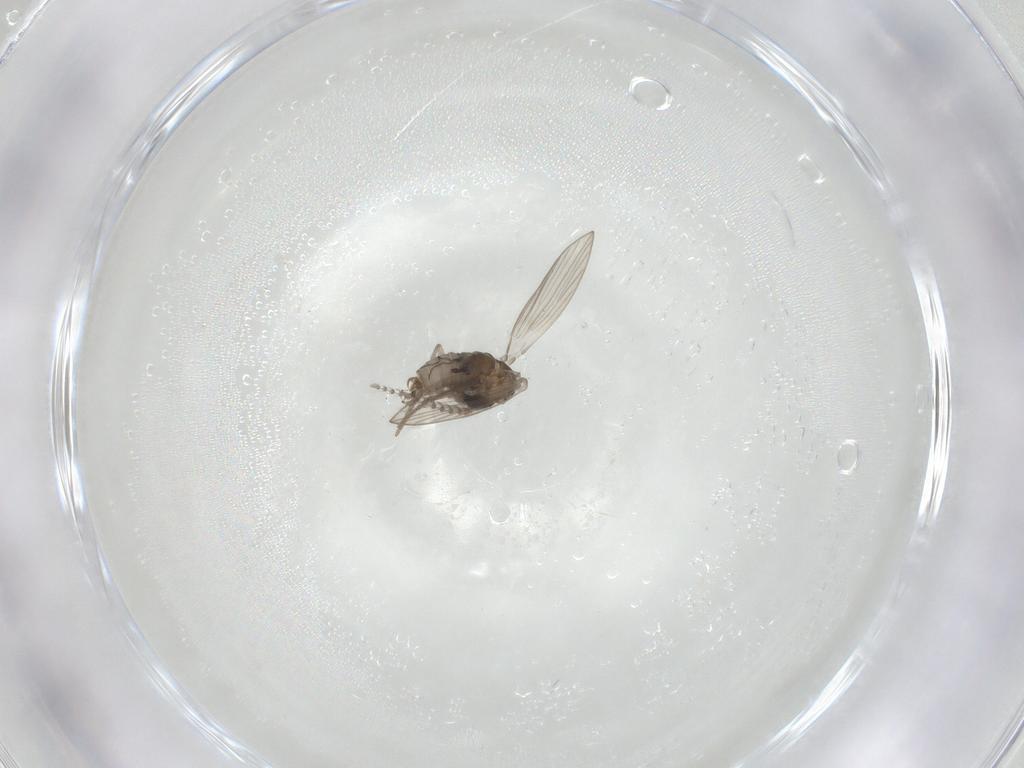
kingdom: Animalia
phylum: Arthropoda
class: Insecta
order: Diptera
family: Psychodidae
